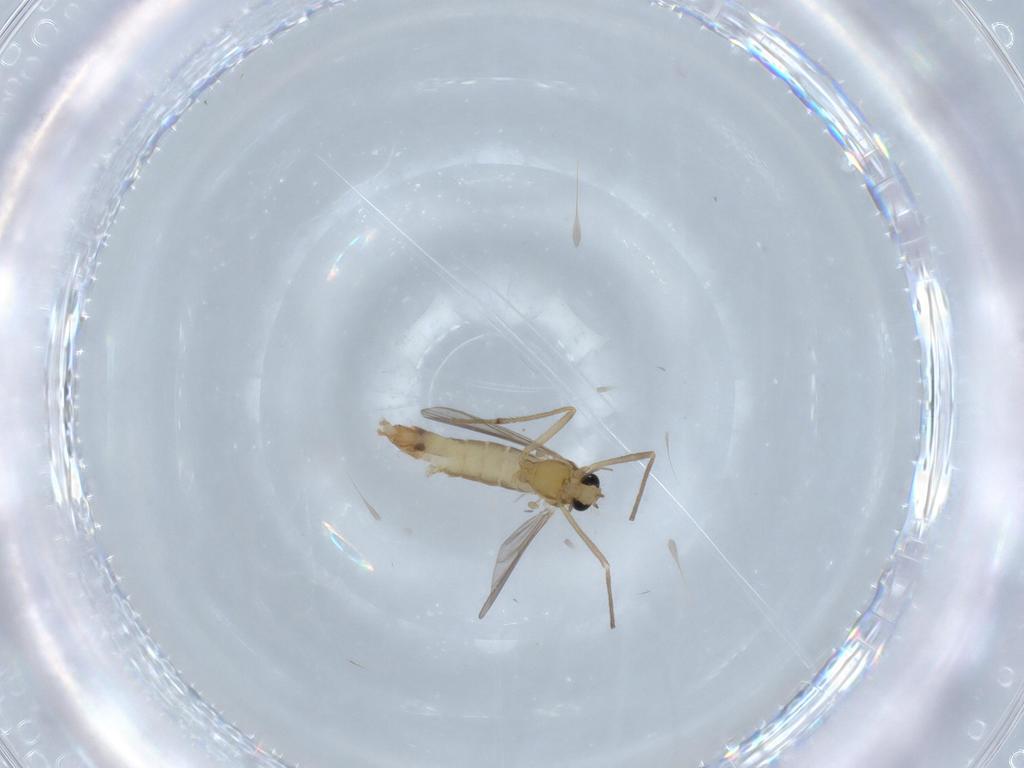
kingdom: Animalia
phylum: Arthropoda
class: Insecta
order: Diptera
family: Chironomidae
